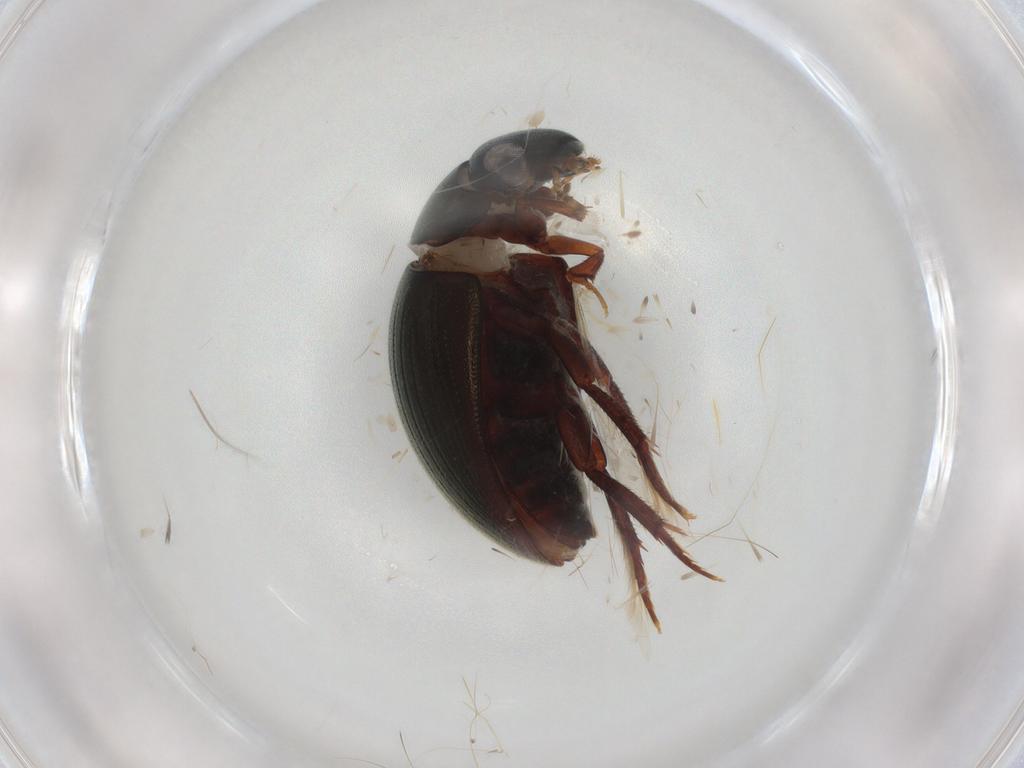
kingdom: Animalia
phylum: Arthropoda
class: Insecta
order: Coleoptera
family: Staphylinidae
